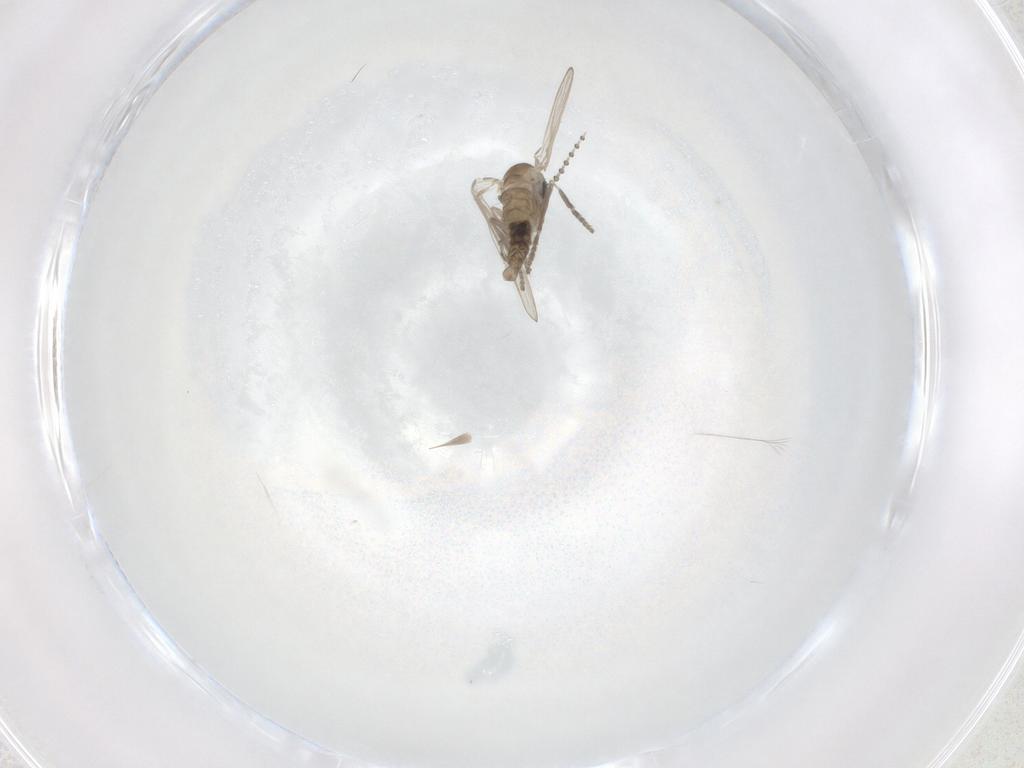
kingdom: Animalia
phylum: Arthropoda
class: Insecta
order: Diptera
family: Psychodidae
